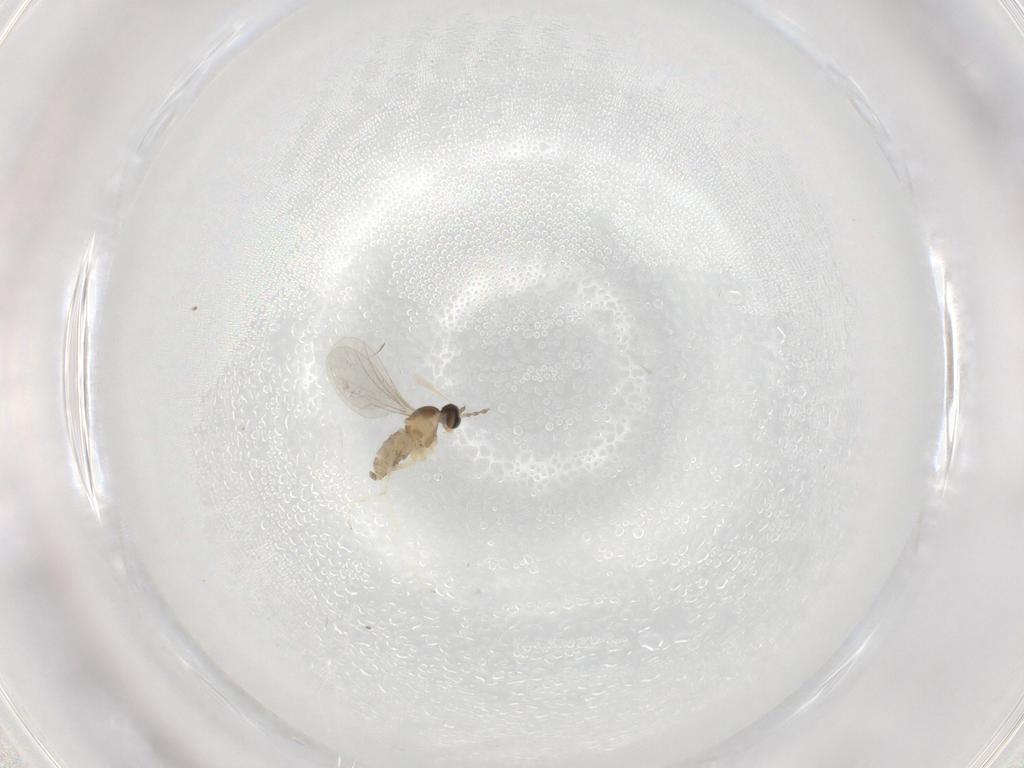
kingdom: Animalia
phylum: Arthropoda
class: Insecta
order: Diptera
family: Cecidomyiidae
